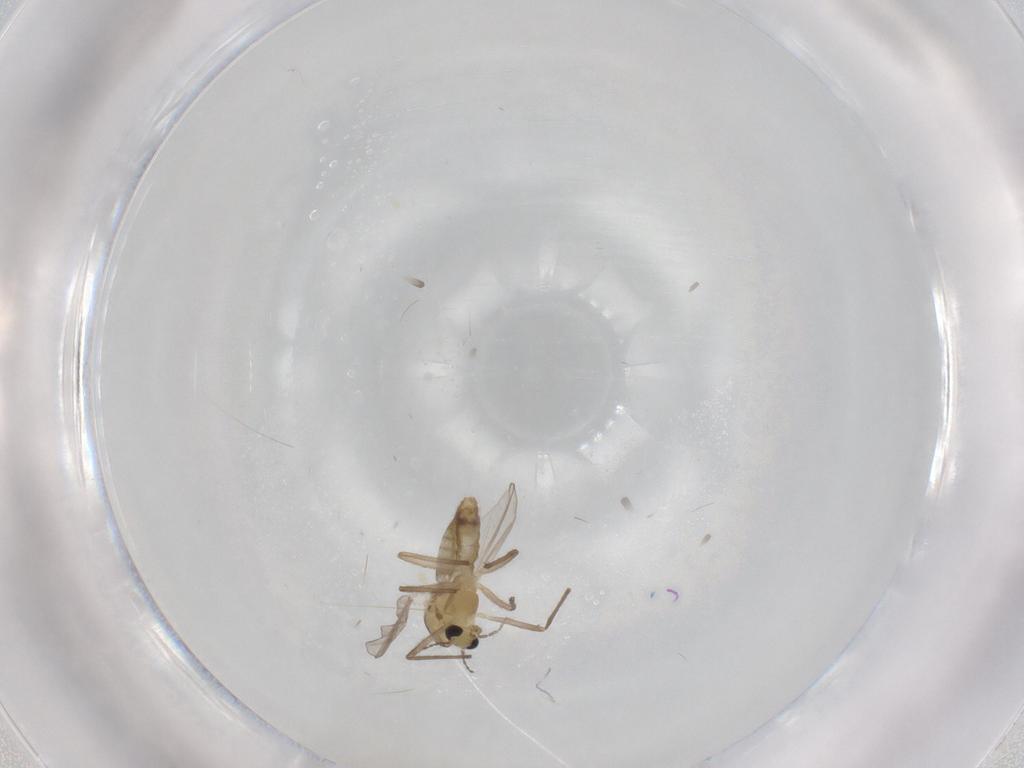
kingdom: Animalia
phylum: Arthropoda
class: Insecta
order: Diptera
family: Chironomidae
